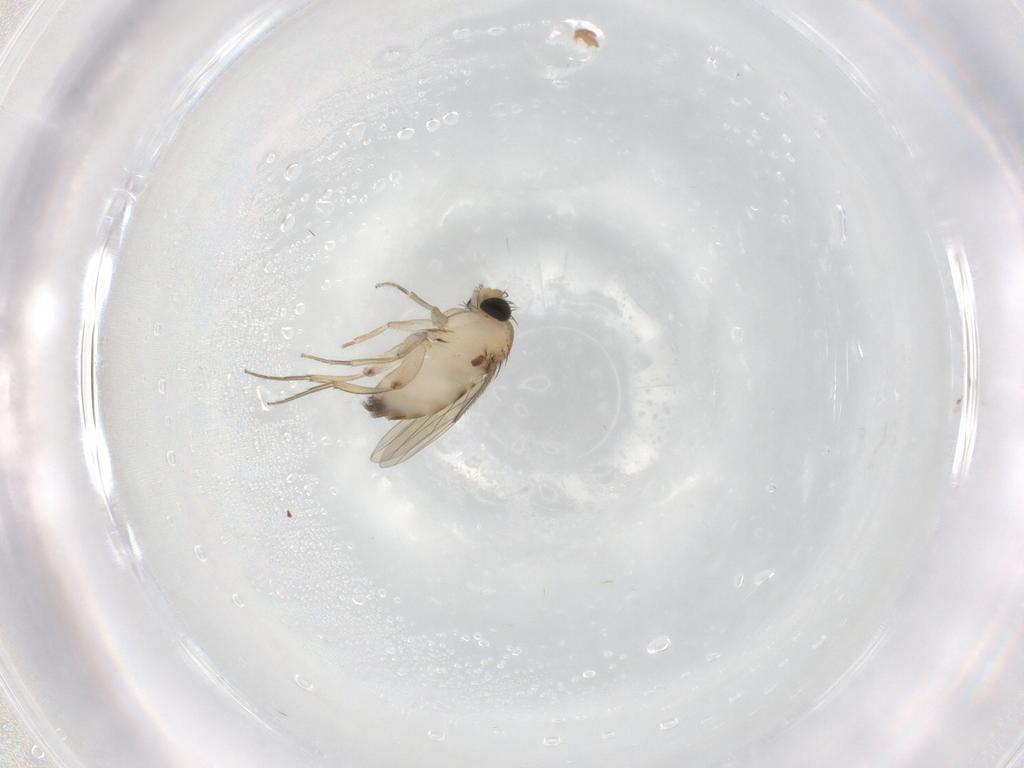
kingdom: Animalia
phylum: Arthropoda
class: Insecta
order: Diptera
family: Phoridae
